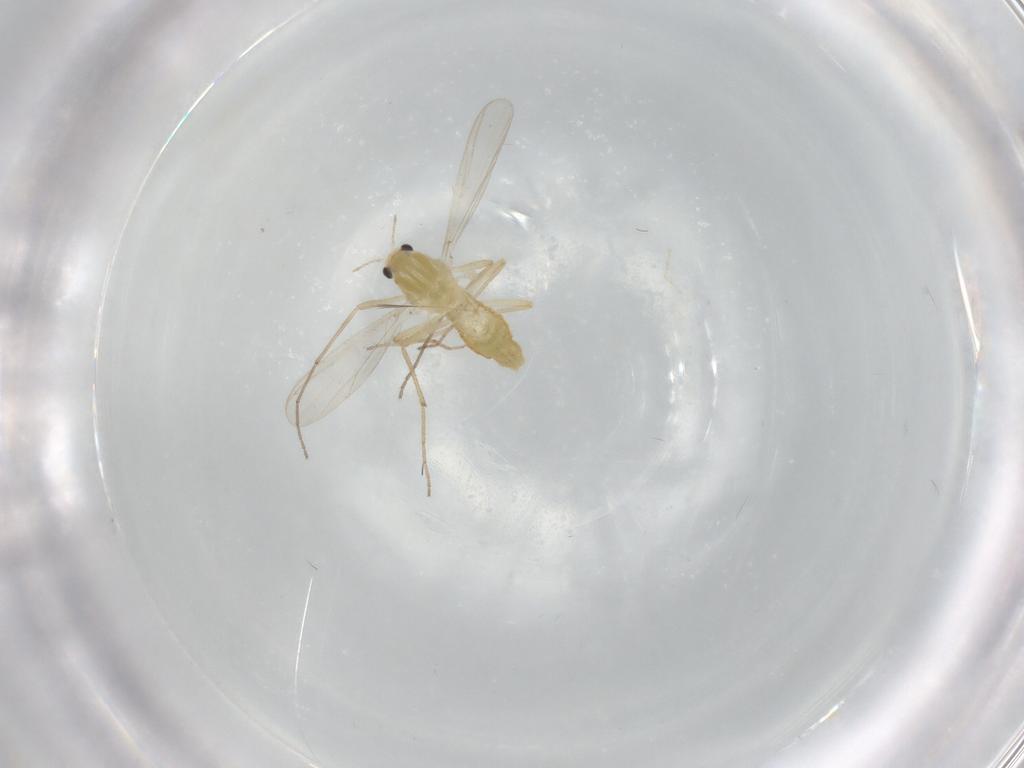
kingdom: Animalia
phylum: Arthropoda
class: Insecta
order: Diptera
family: Chironomidae
